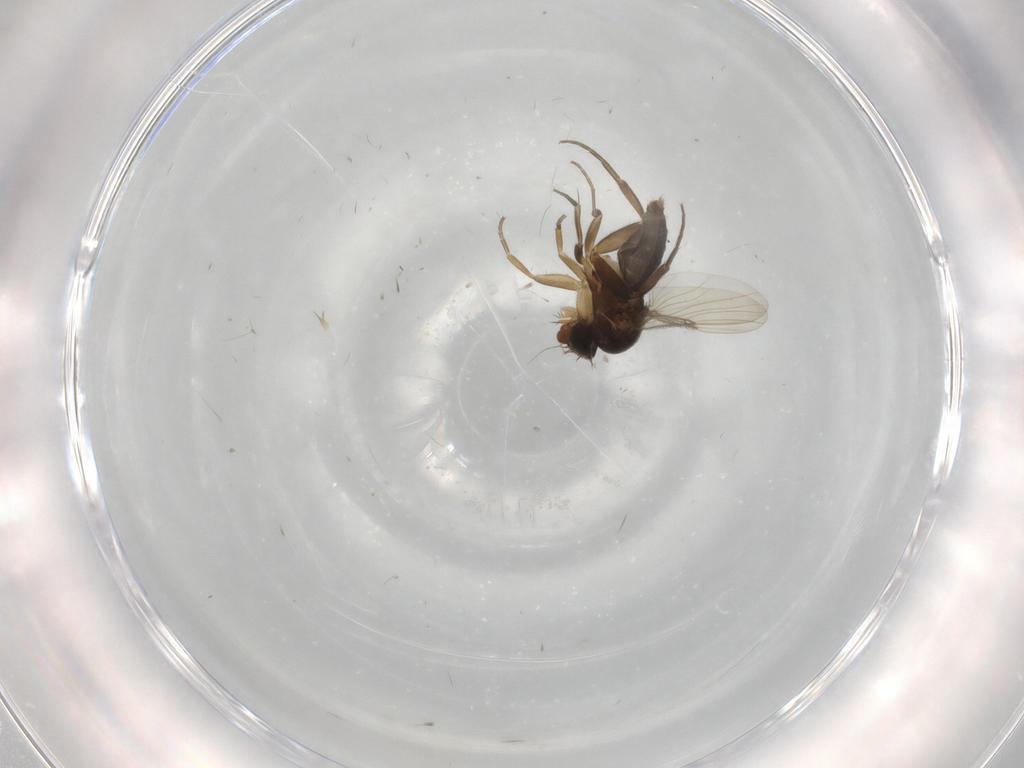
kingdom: Animalia
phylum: Arthropoda
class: Insecta
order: Diptera
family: Phoridae
